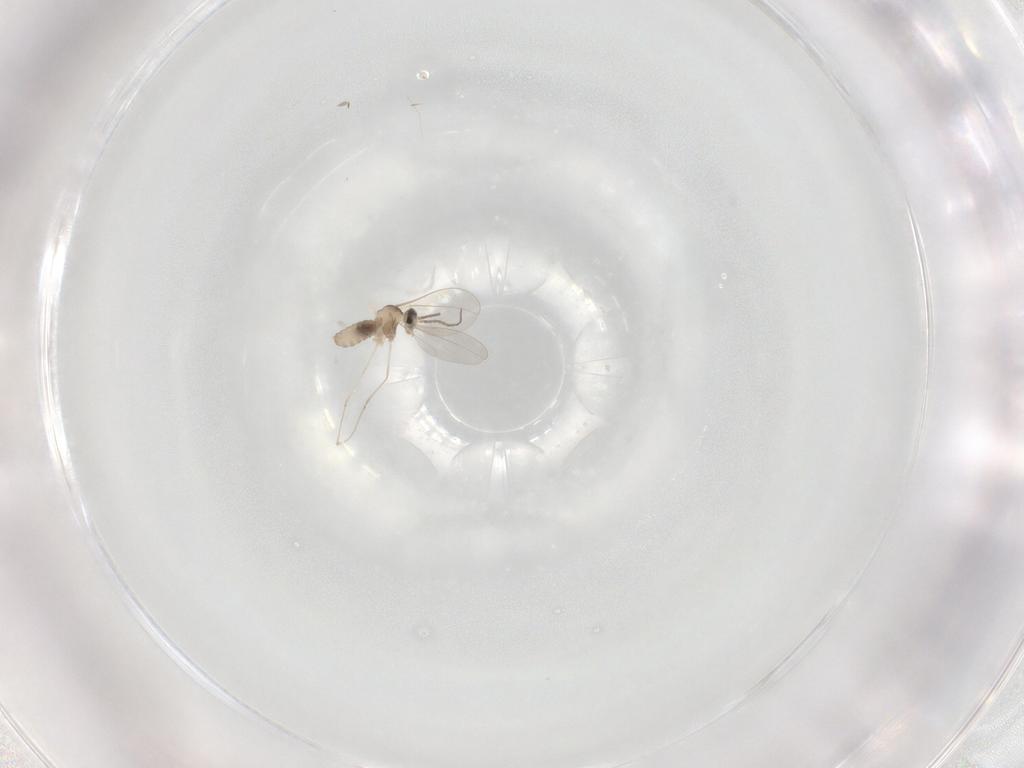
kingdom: Animalia
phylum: Arthropoda
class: Insecta
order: Diptera
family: Cecidomyiidae
